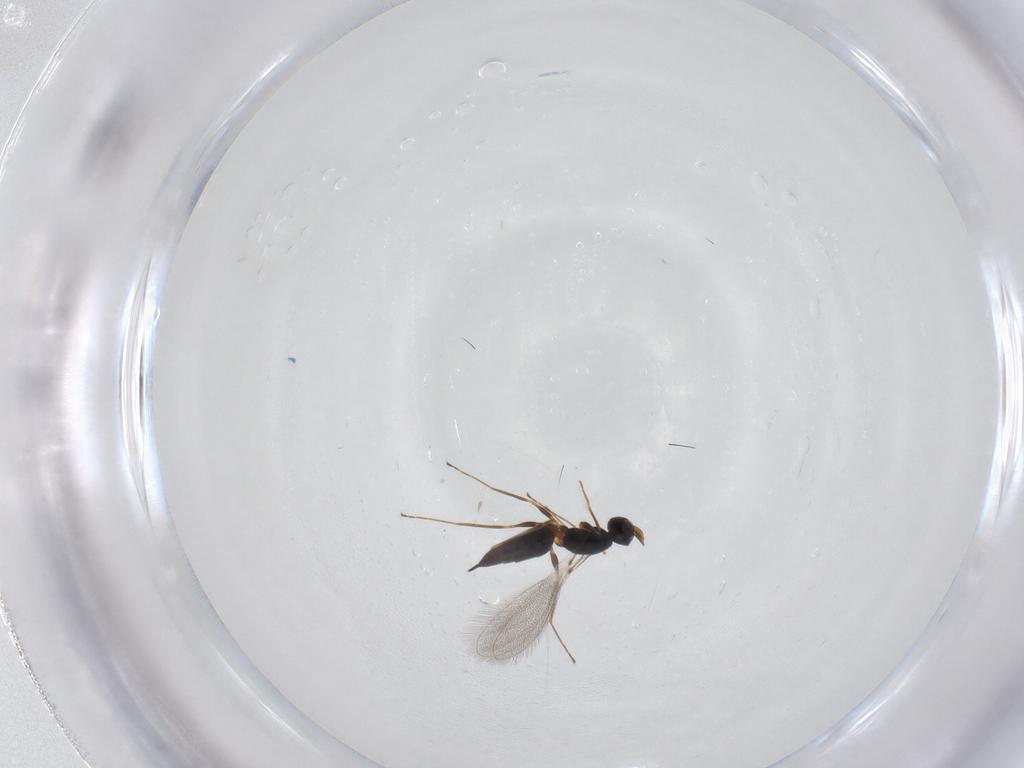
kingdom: Animalia
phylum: Arthropoda
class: Insecta
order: Hymenoptera
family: Mymaridae
